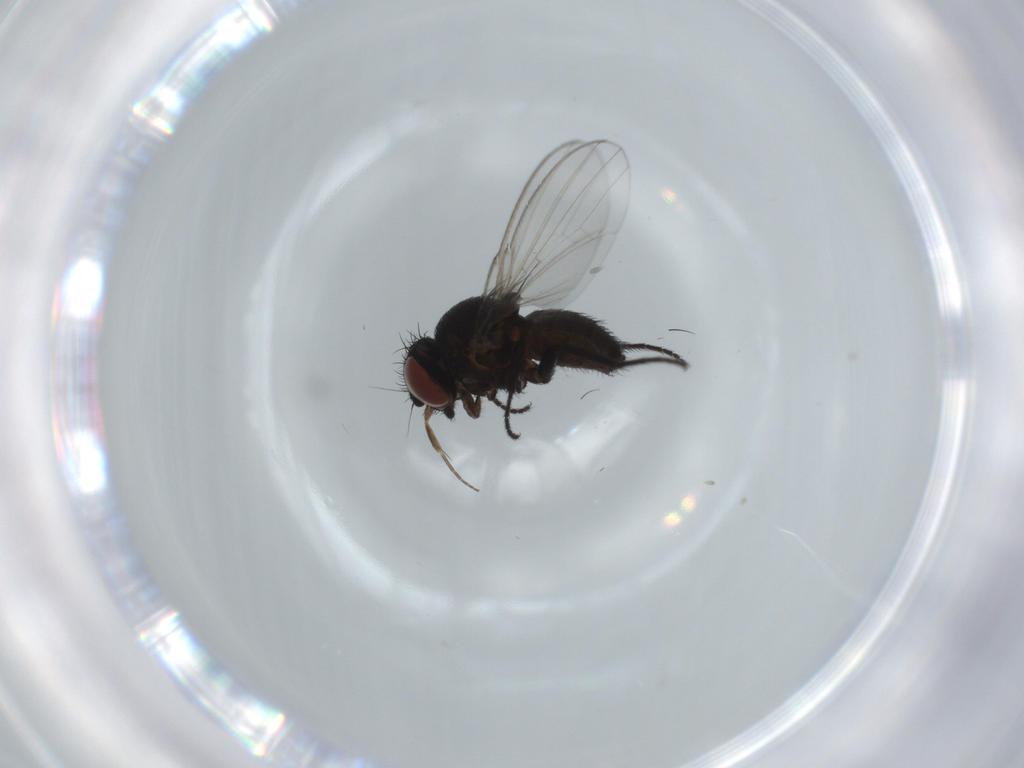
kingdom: Animalia
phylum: Arthropoda
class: Insecta
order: Diptera
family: Milichiidae
